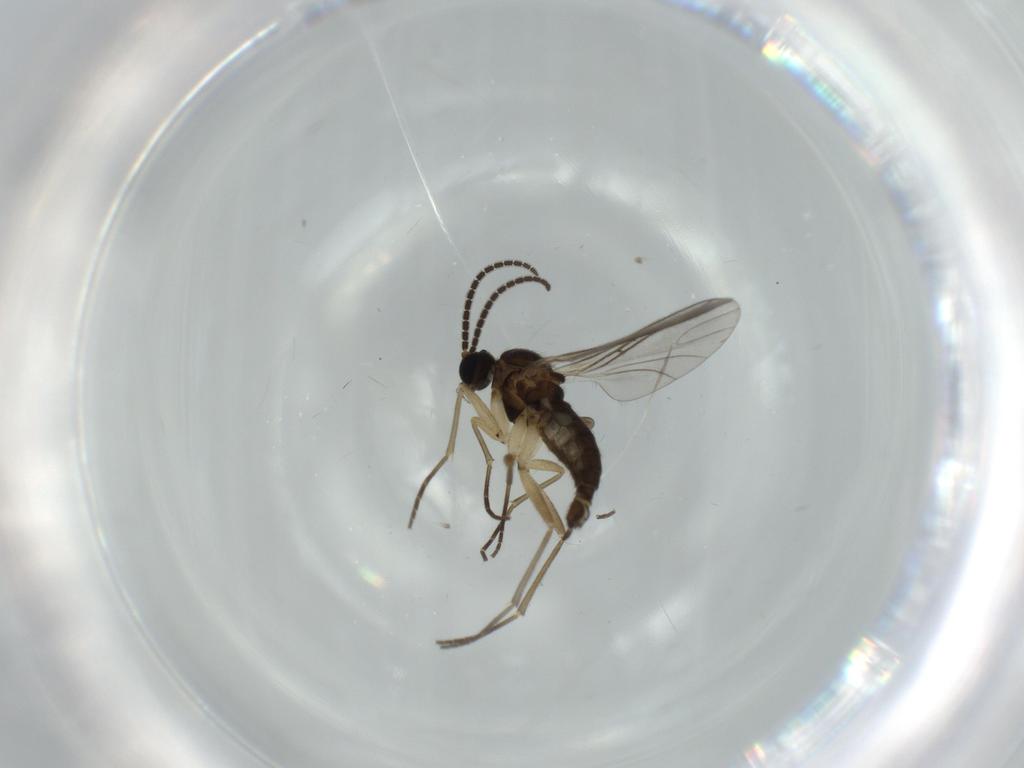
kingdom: Animalia
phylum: Arthropoda
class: Insecta
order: Diptera
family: Sciaridae
